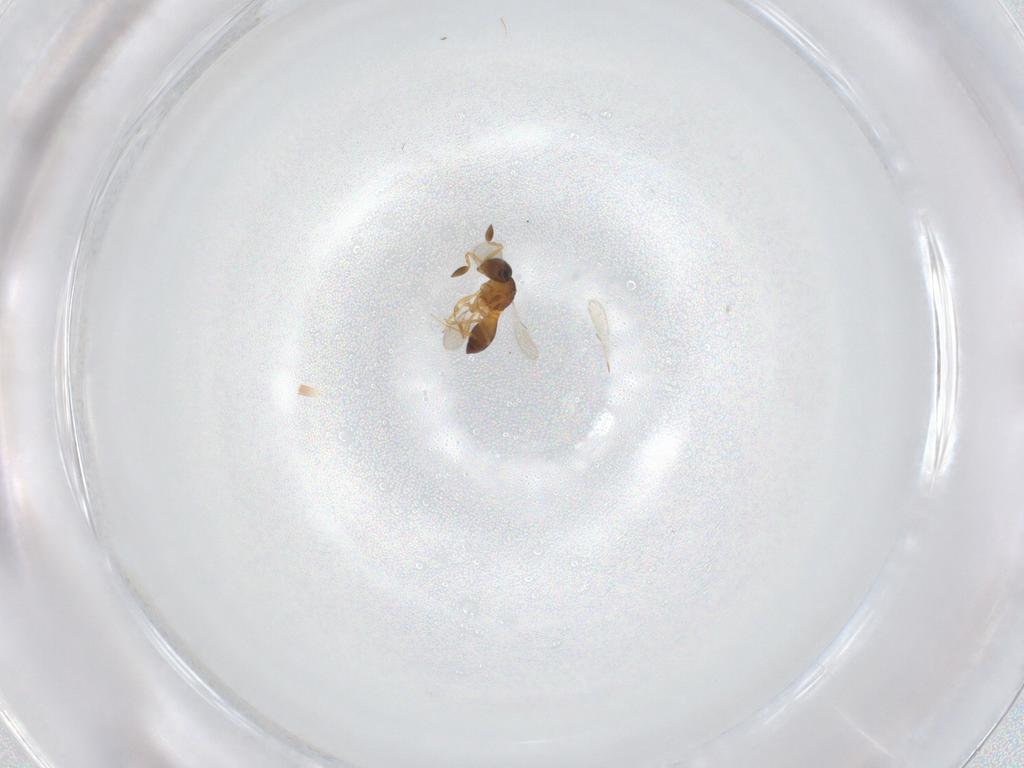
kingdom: Animalia
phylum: Arthropoda
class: Insecta
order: Hymenoptera
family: Scelionidae
